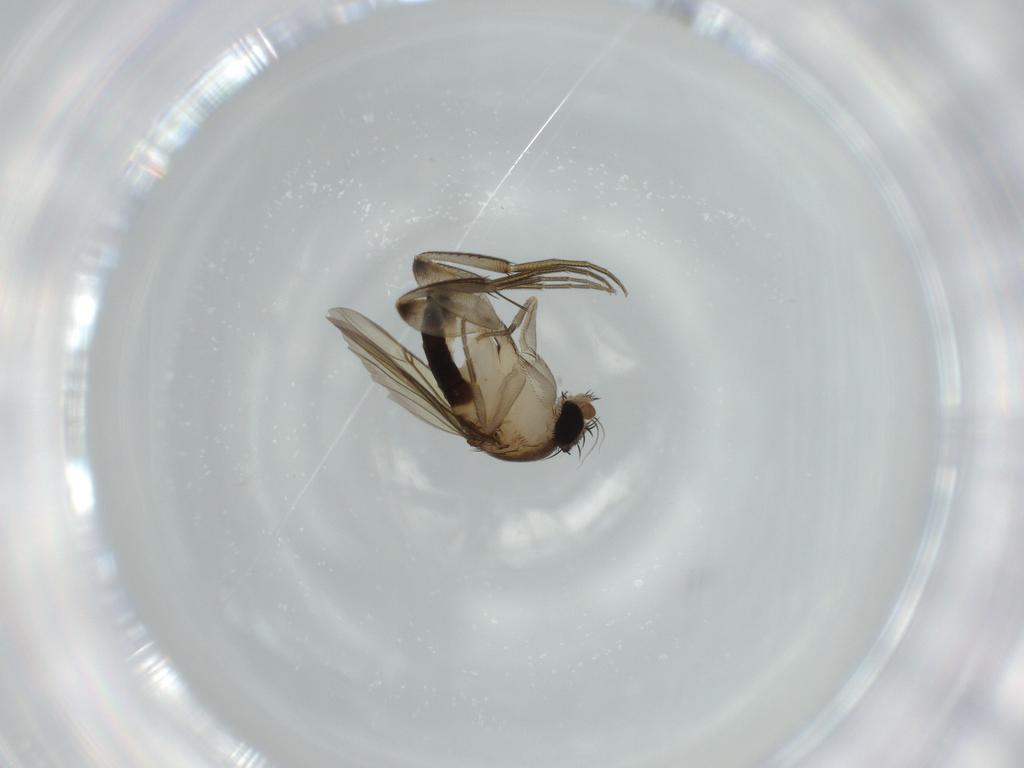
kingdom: Animalia
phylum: Arthropoda
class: Insecta
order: Diptera
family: Phoridae
